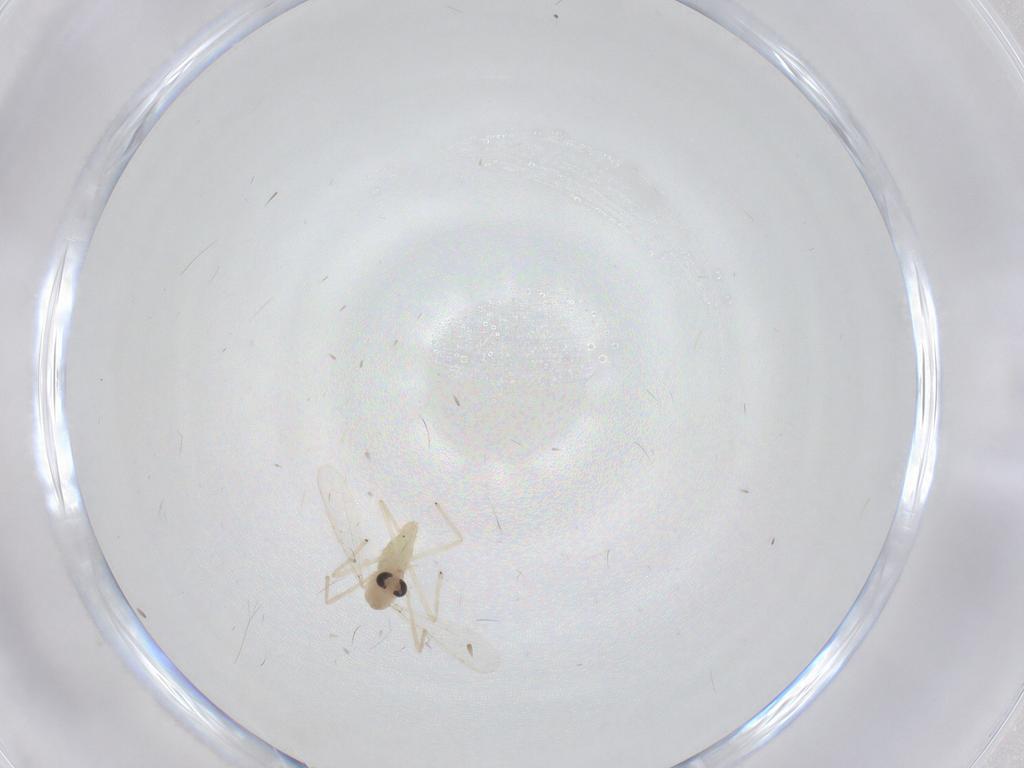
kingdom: Animalia
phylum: Arthropoda
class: Insecta
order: Diptera
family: Chironomidae
